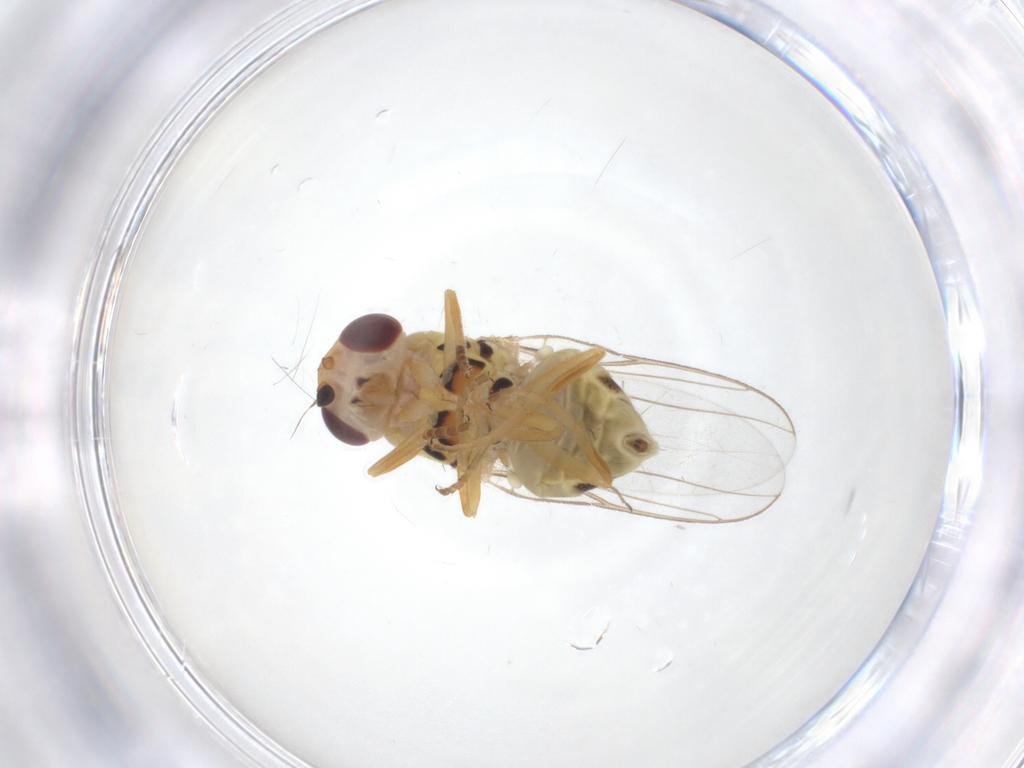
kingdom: Animalia
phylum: Arthropoda
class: Insecta
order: Diptera
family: Chloropidae
